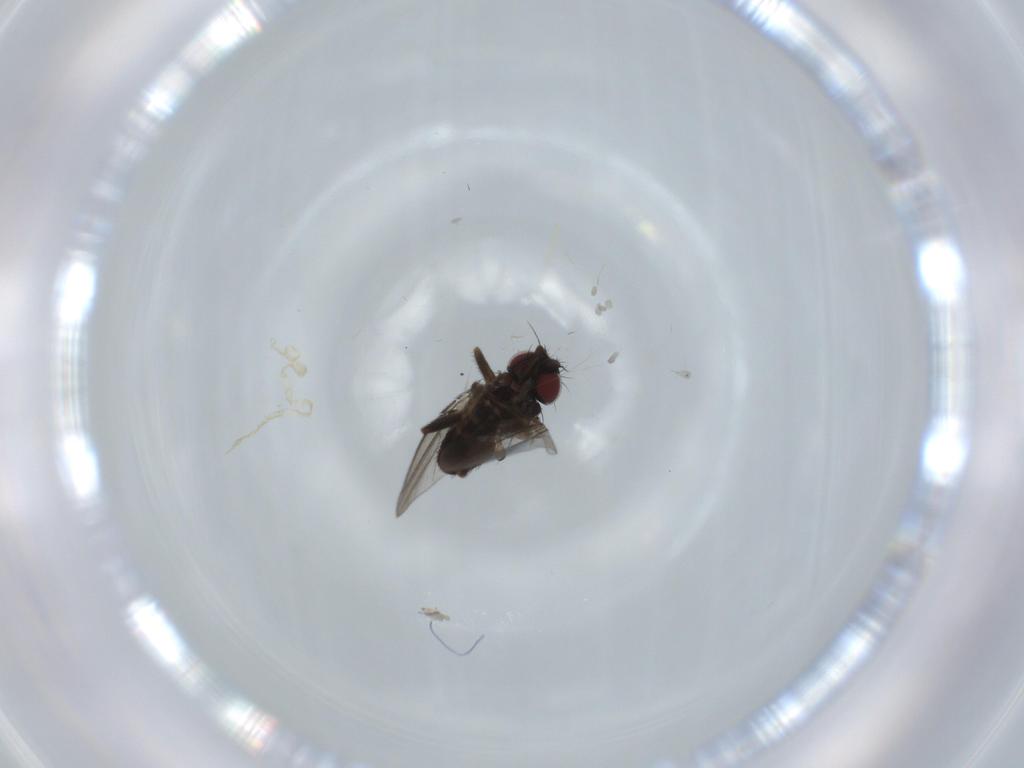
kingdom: Animalia
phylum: Arthropoda
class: Insecta
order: Diptera
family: Milichiidae
